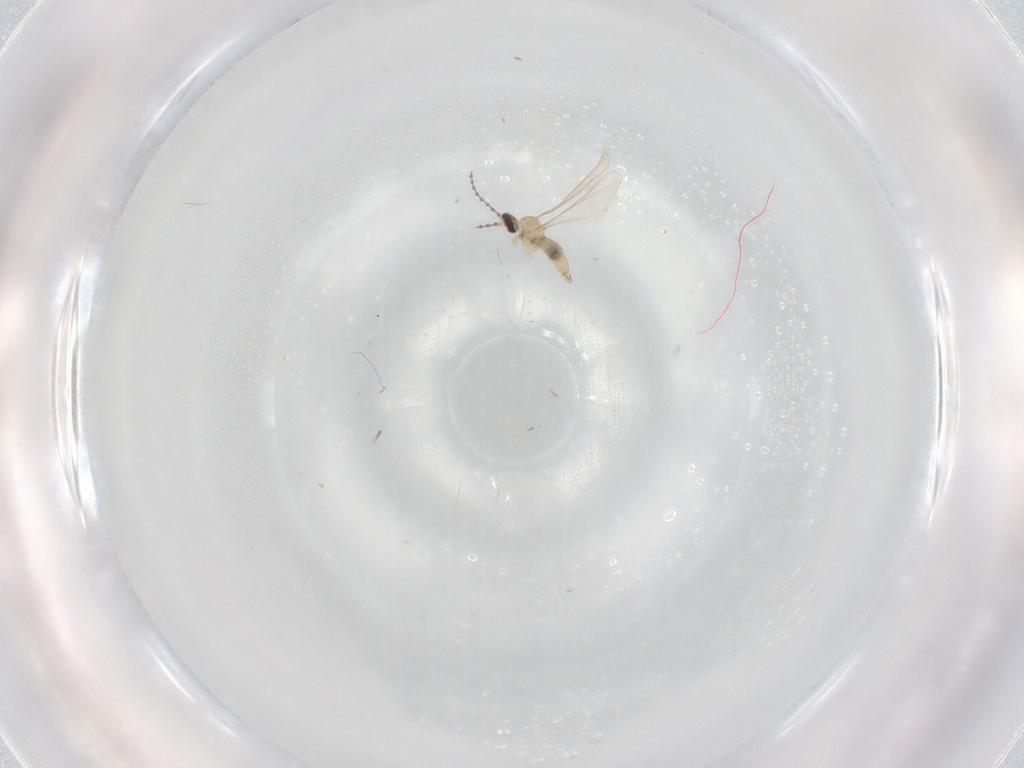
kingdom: Animalia
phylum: Arthropoda
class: Insecta
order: Diptera
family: Cecidomyiidae
